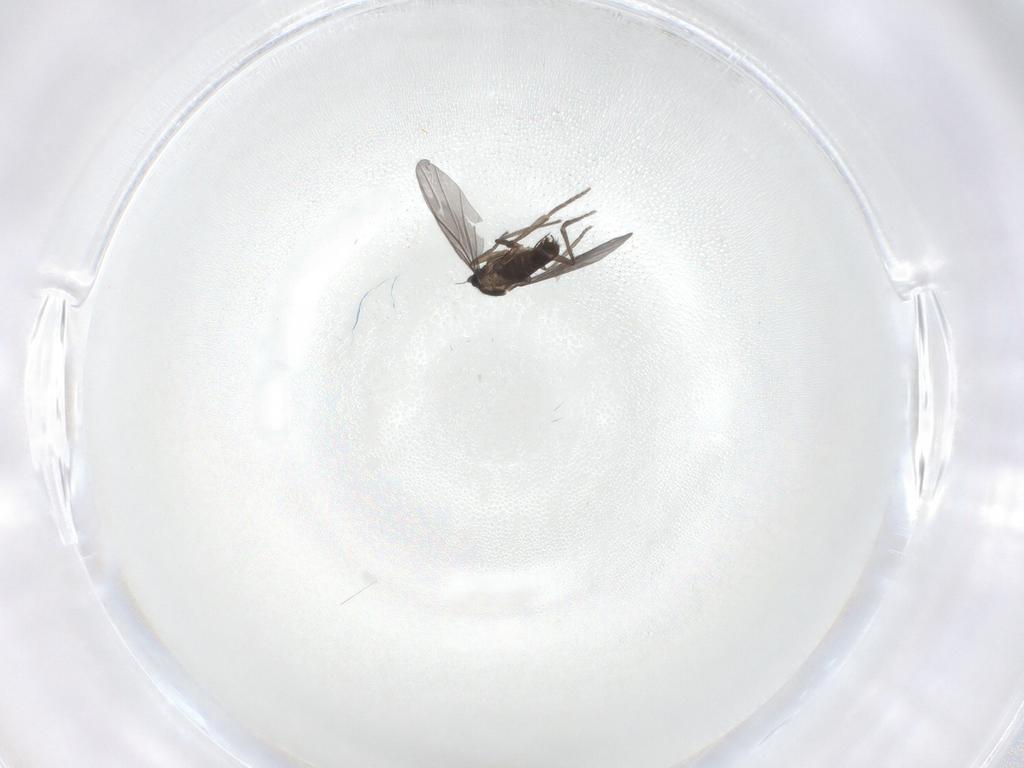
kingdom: Animalia
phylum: Arthropoda
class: Insecta
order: Diptera
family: Phoridae
